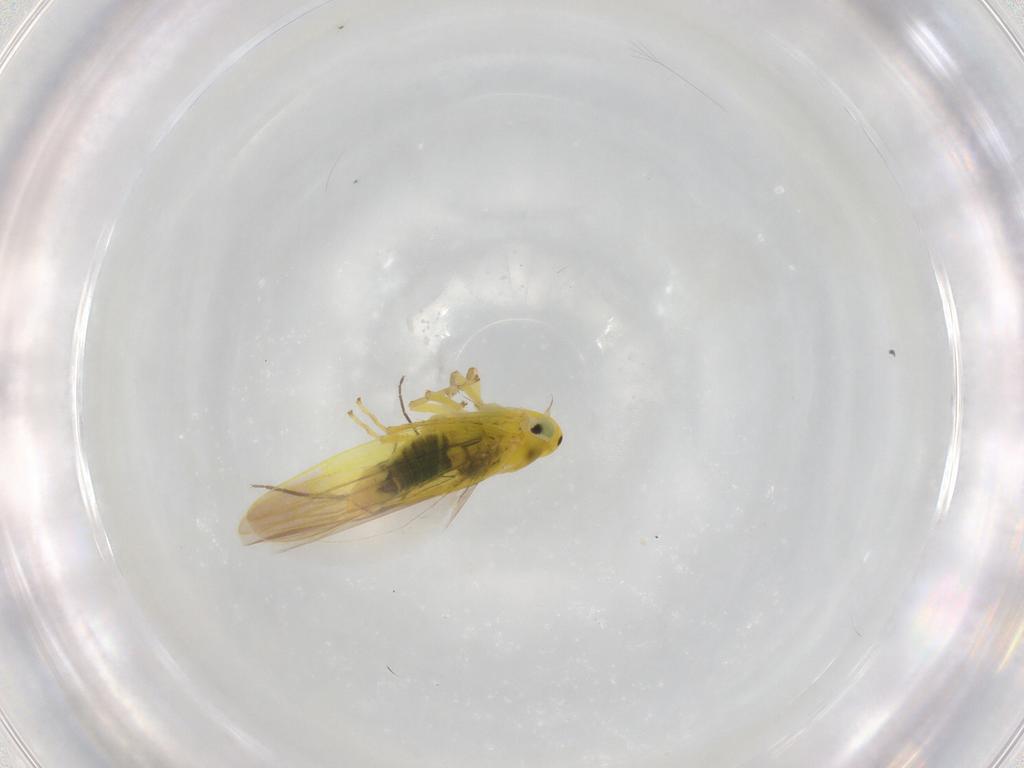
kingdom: Animalia
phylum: Arthropoda
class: Insecta
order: Hemiptera
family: Cicadellidae
